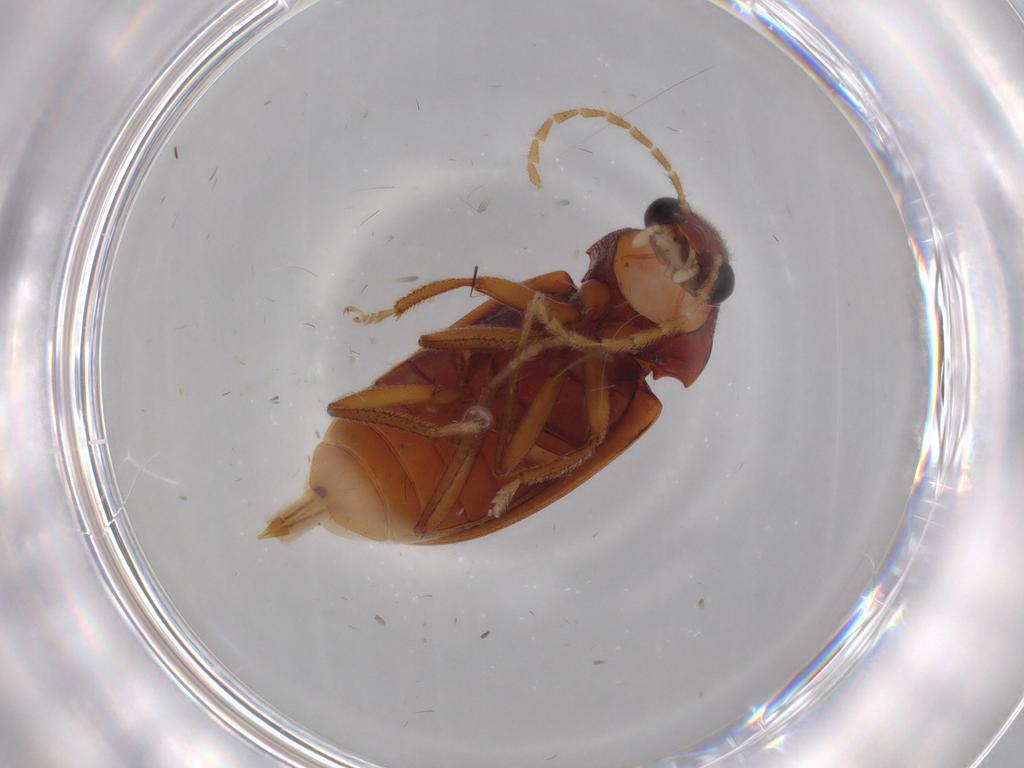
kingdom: Animalia
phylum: Arthropoda
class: Insecta
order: Coleoptera
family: Ptilodactylidae
